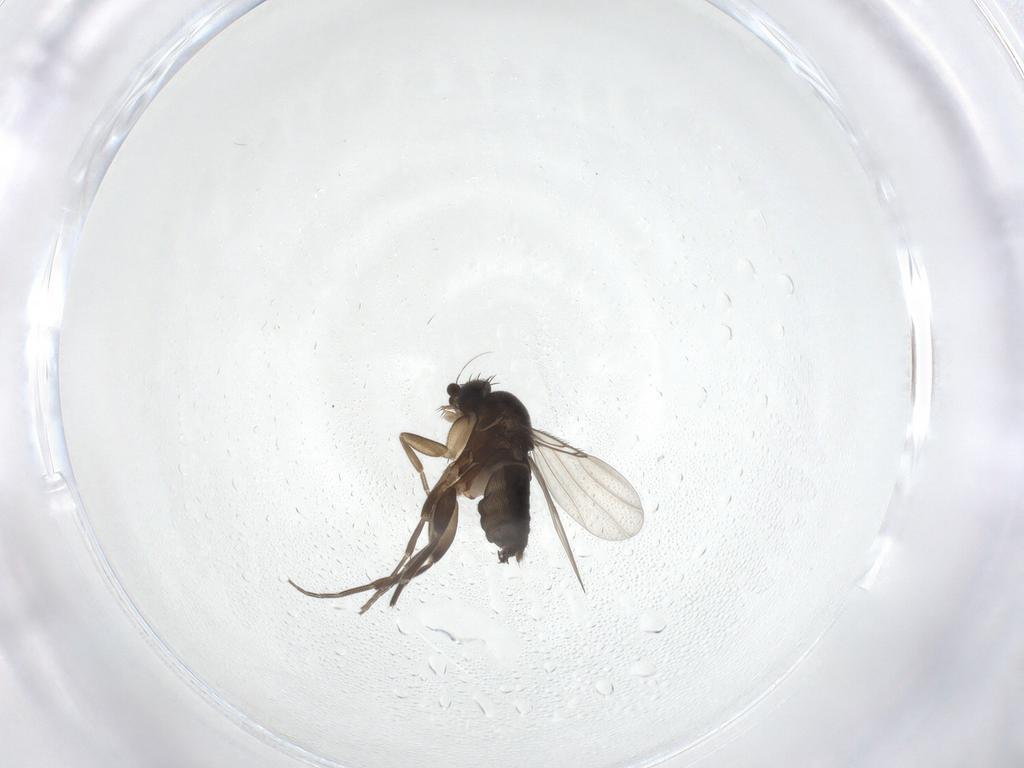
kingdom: Animalia
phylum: Arthropoda
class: Insecta
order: Diptera
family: Phoridae
